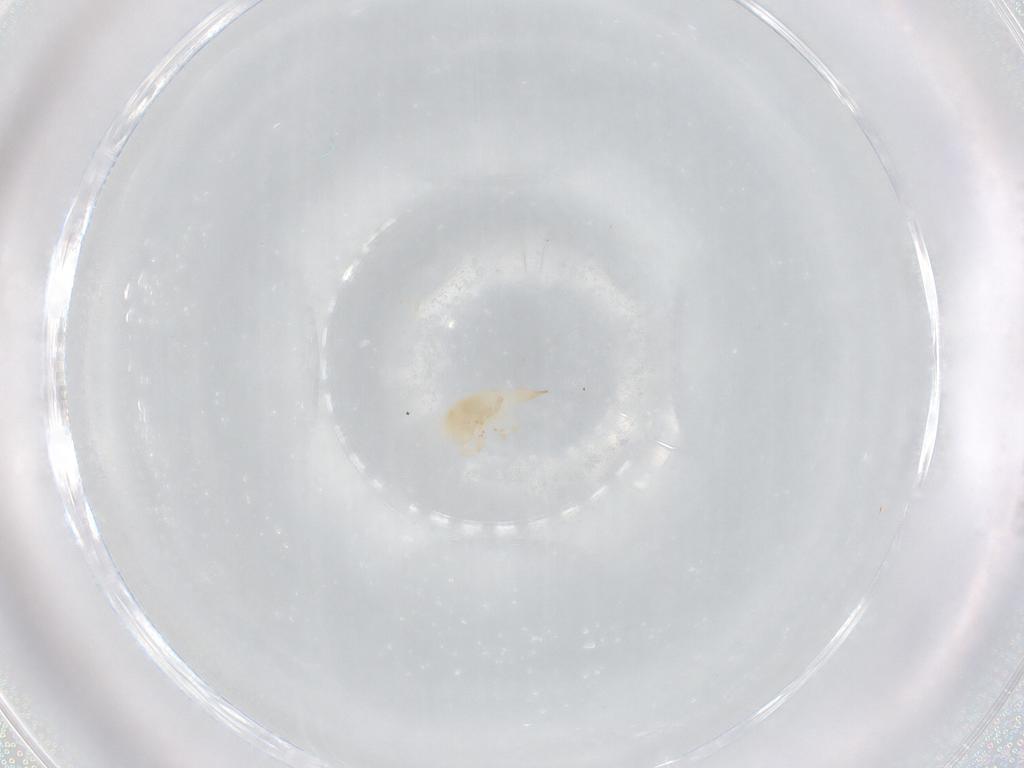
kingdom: Animalia
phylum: Arthropoda
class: Arachnida
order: Trombidiformes
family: Bdellidae
